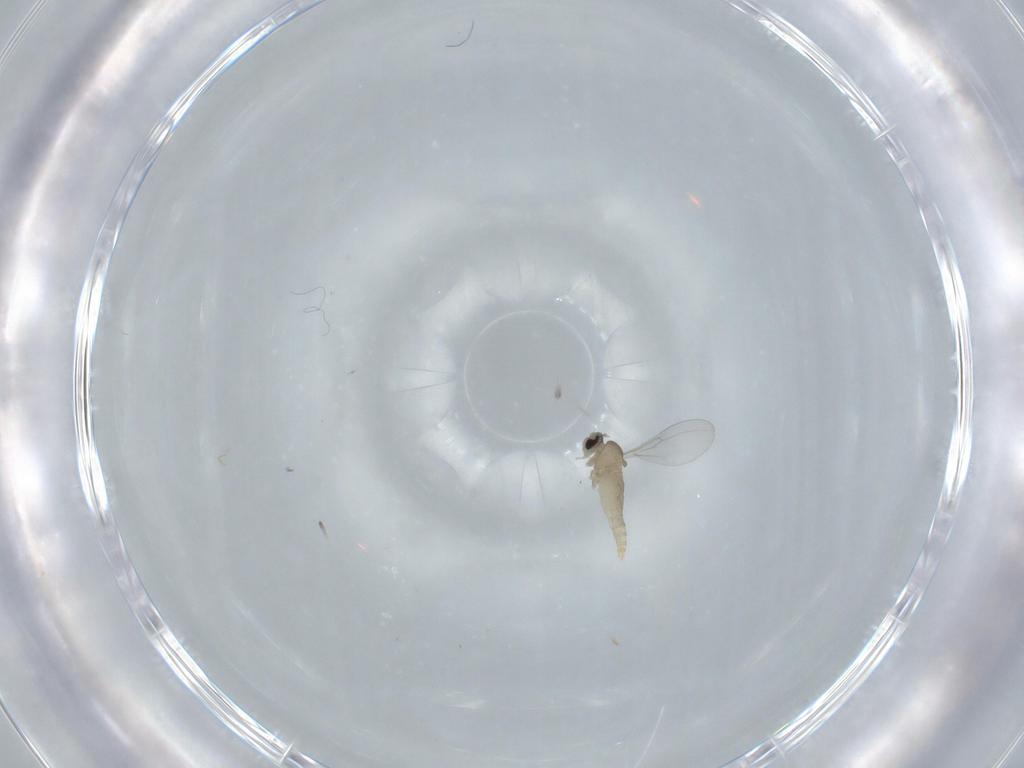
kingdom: Animalia
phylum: Arthropoda
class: Insecta
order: Diptera
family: Cecidomyiidae
